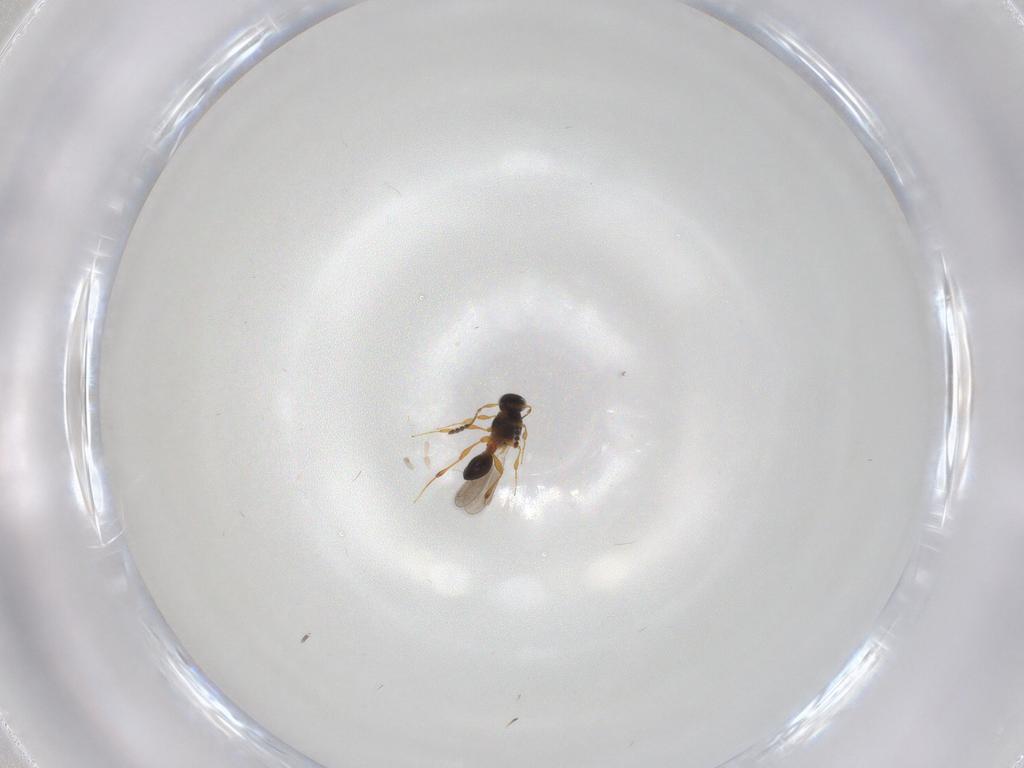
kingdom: Animalia
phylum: Arthropoda
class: Insecta
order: Hymenoptera
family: Platygastridae
